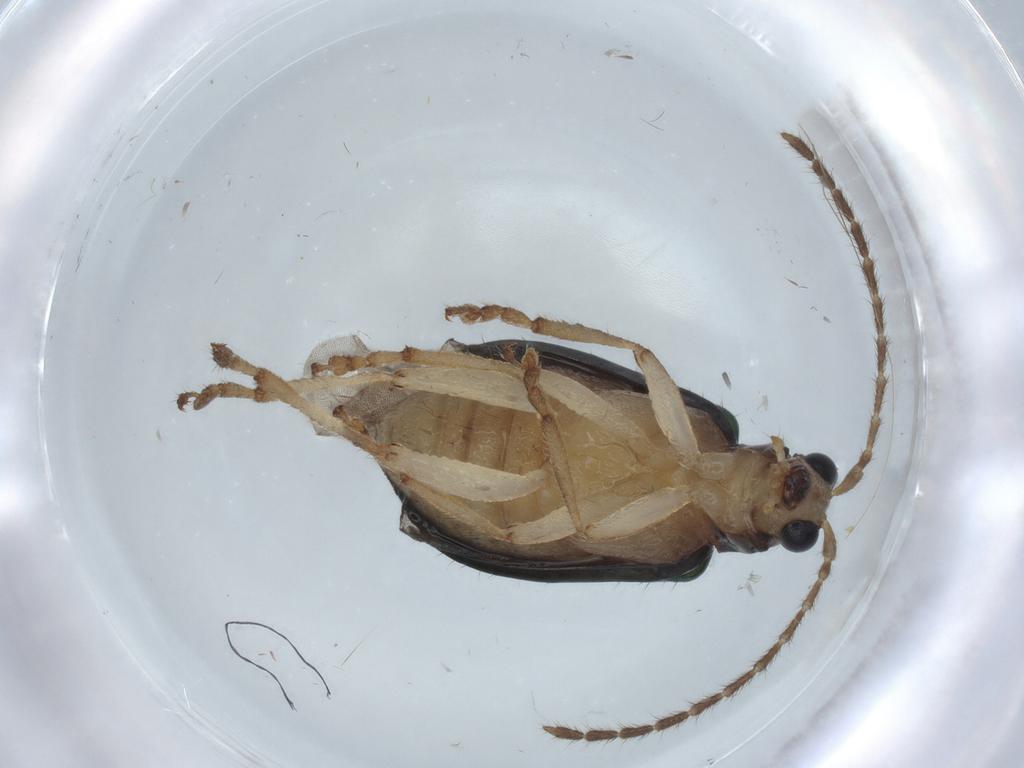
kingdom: Animalia
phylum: Arthropoda
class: Insecta
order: Coleoptera
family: Chrysomelidae
